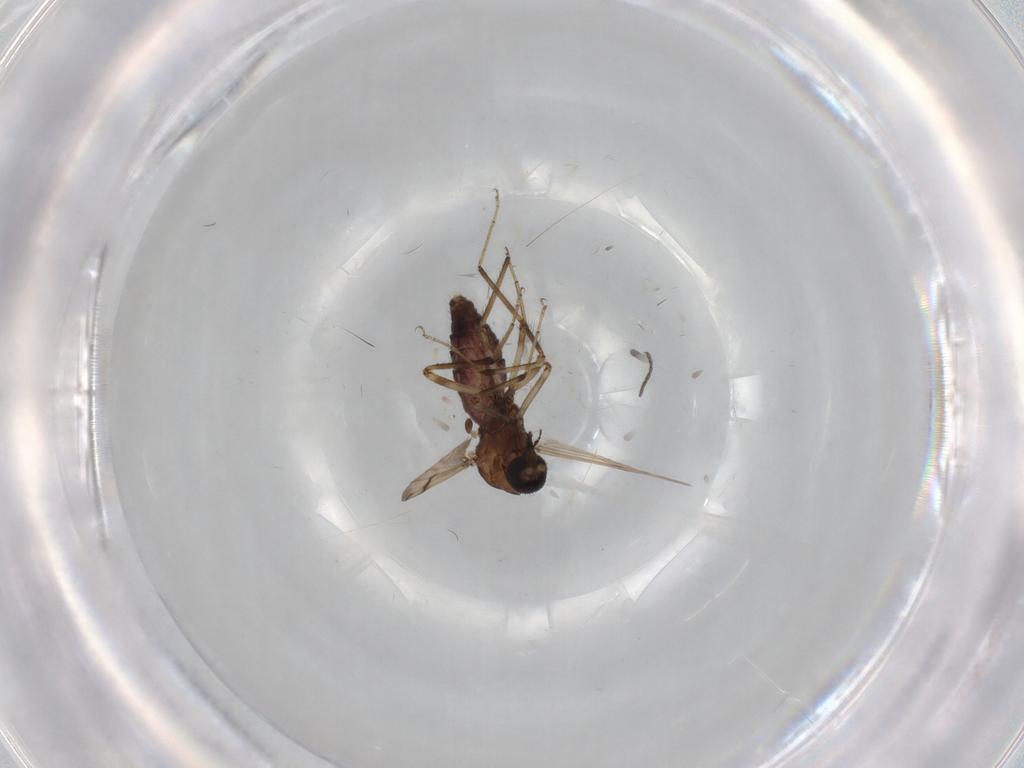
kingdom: Animalia
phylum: Arthropoda
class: Insecta
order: Diptera
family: Sciaridae
